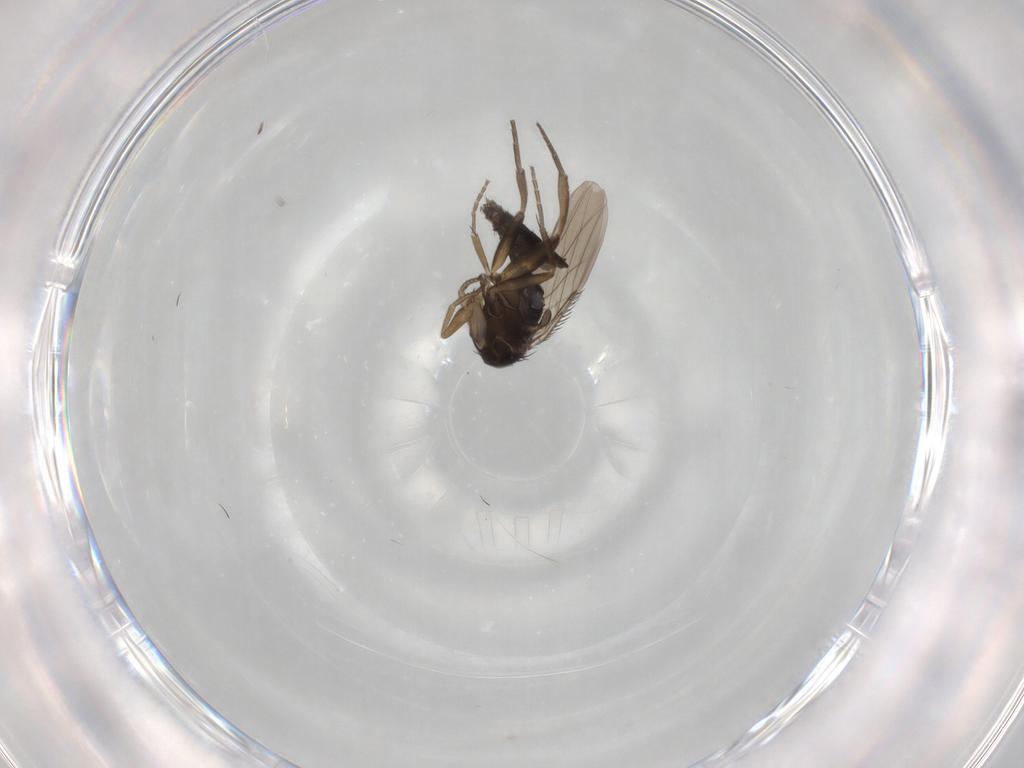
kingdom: Animalia
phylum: Arthropoda
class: Insecta
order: Diptera
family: Phoridae
